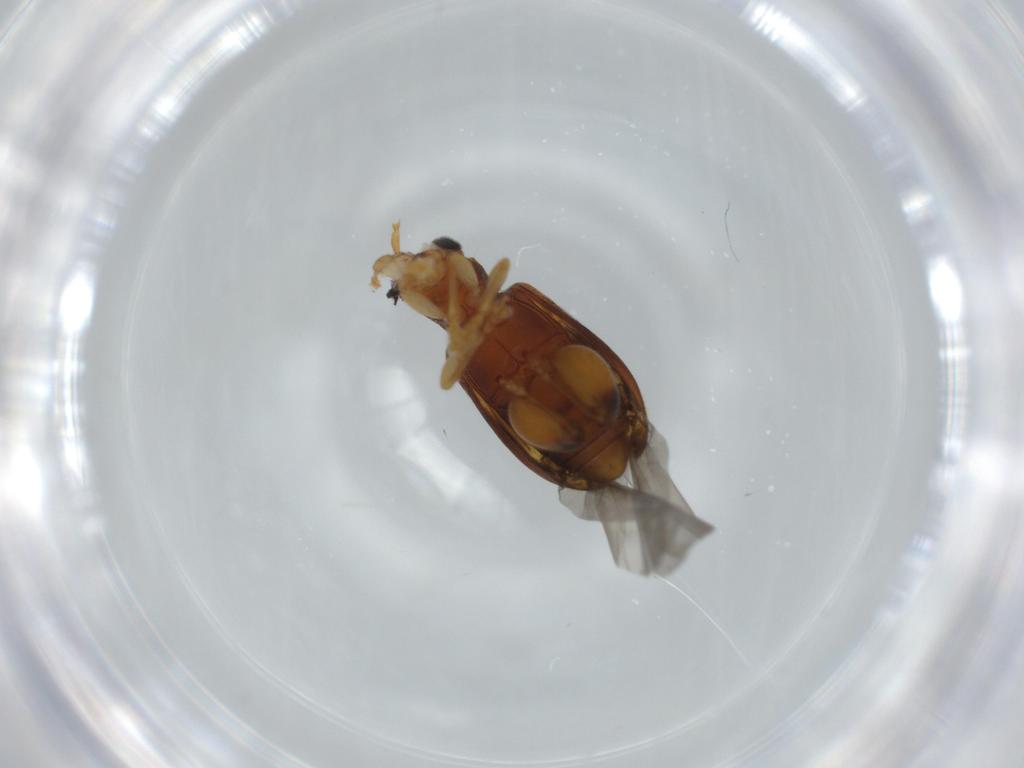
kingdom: Animalia
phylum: Arthropoda
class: Insecta
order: Coleoptera
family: Chrysomelidae
